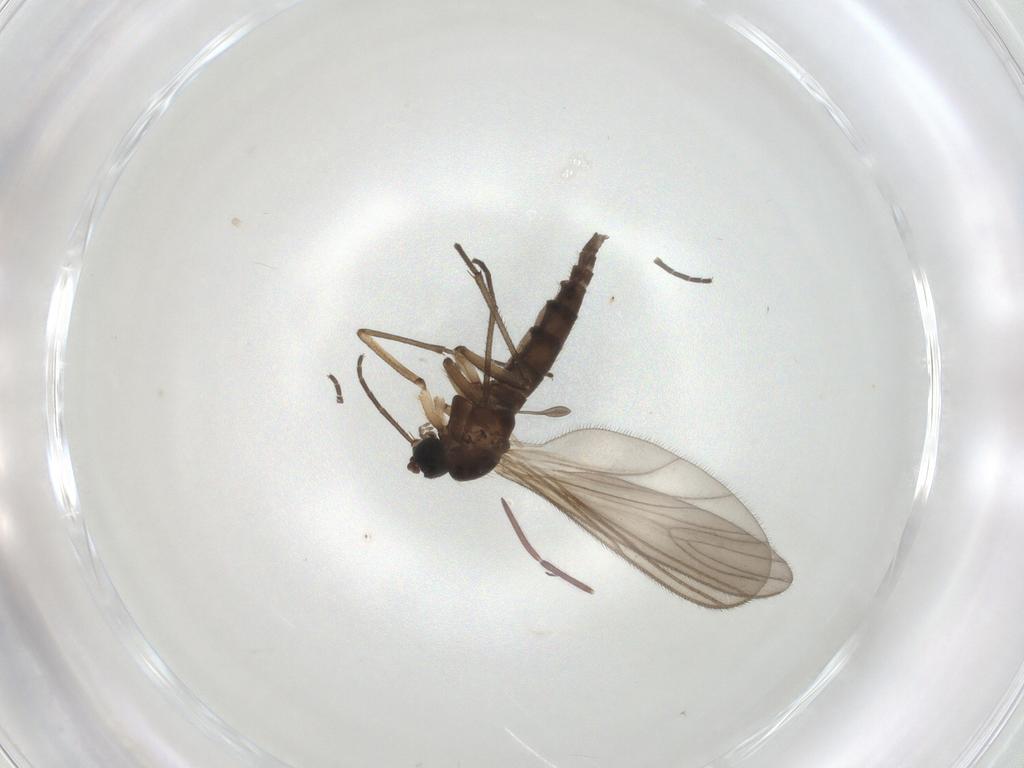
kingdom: Animalia
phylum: Arthropoda
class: Insecta
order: Diptera
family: Sciaridae
